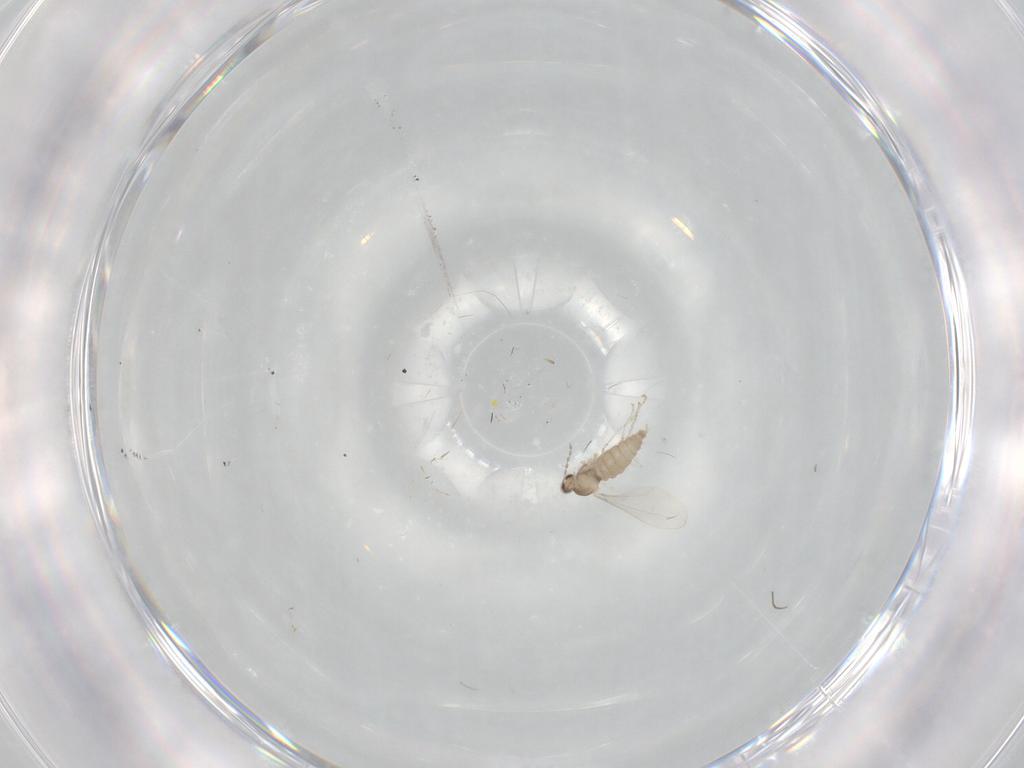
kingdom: Animalia
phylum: Arthropoda
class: Insecta
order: Diptera
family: Cecidomyiidae
